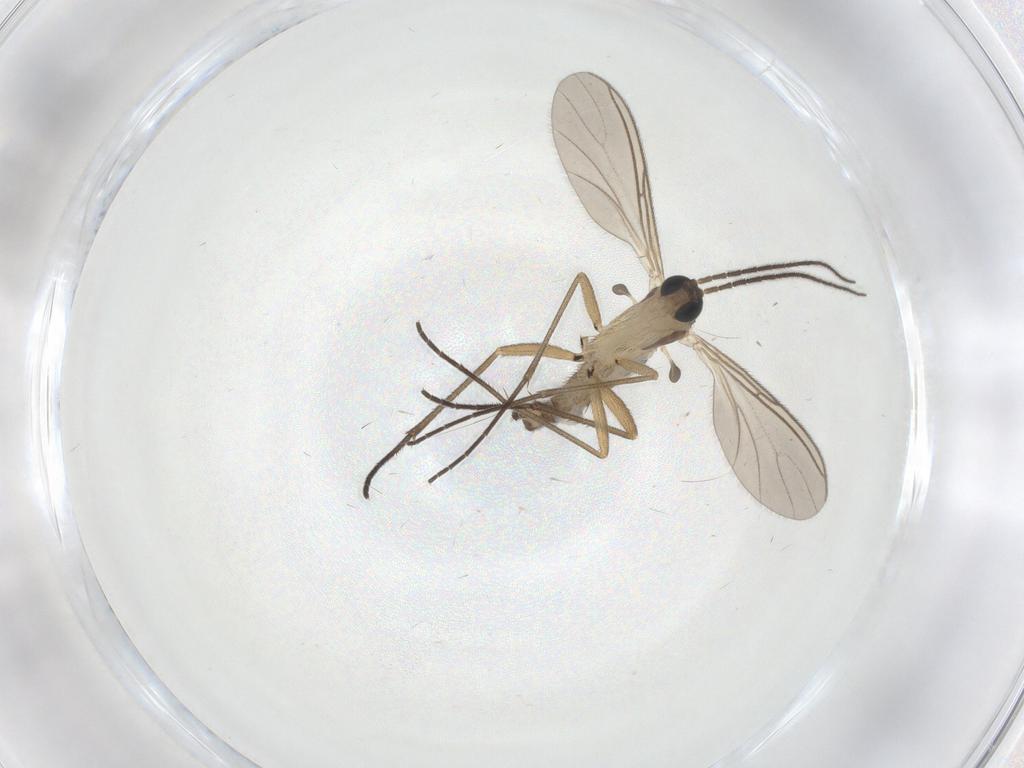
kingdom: Animalia
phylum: Arthropoda
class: Insecta
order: Diptera
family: Sciaridae
